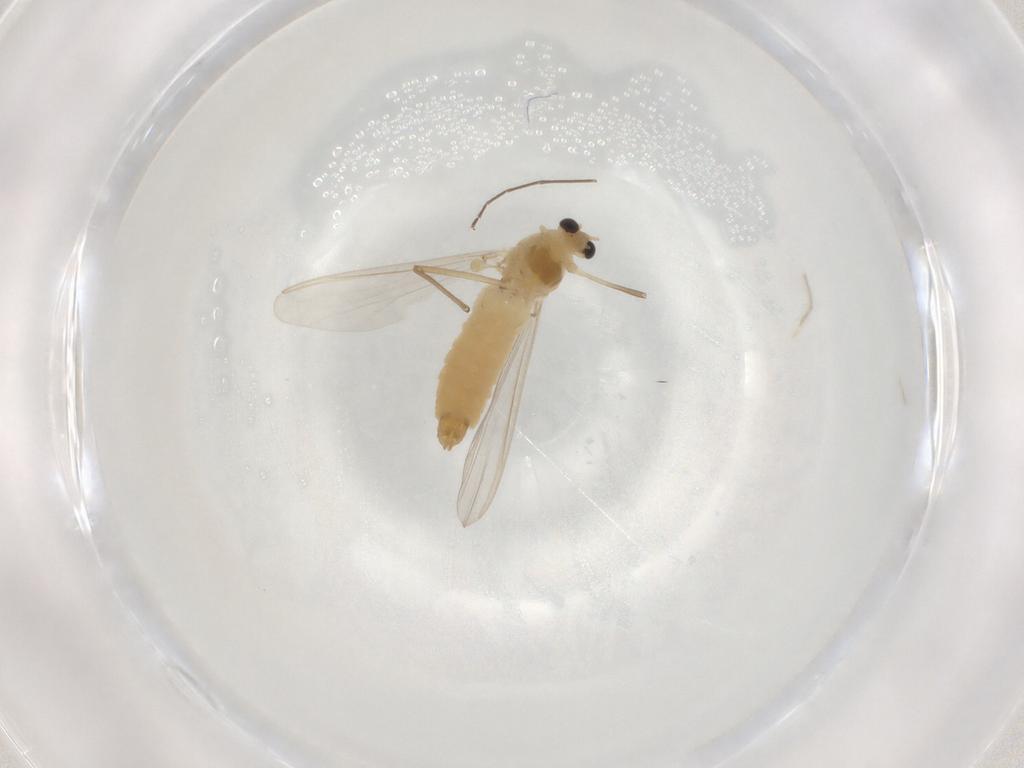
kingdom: Animalia
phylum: Arthropoda
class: Insecta
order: Diptera
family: Chironomidae
